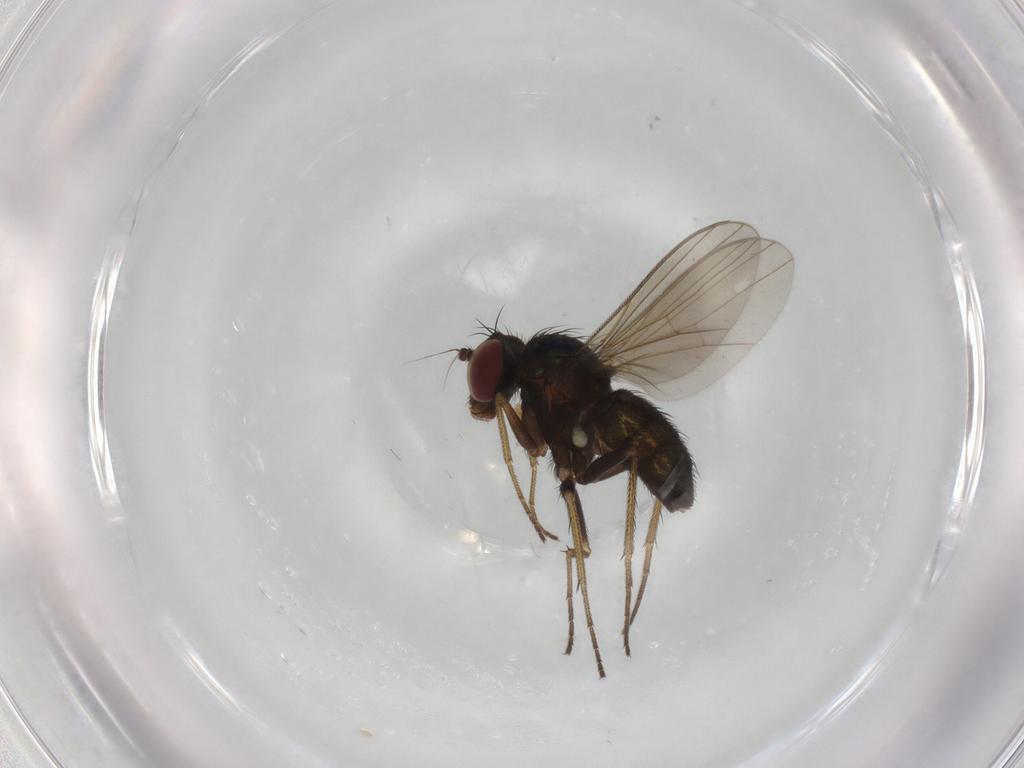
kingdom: Animalia
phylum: Arthropoda
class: Insecta
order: Diptera
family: Dolichopodidae
